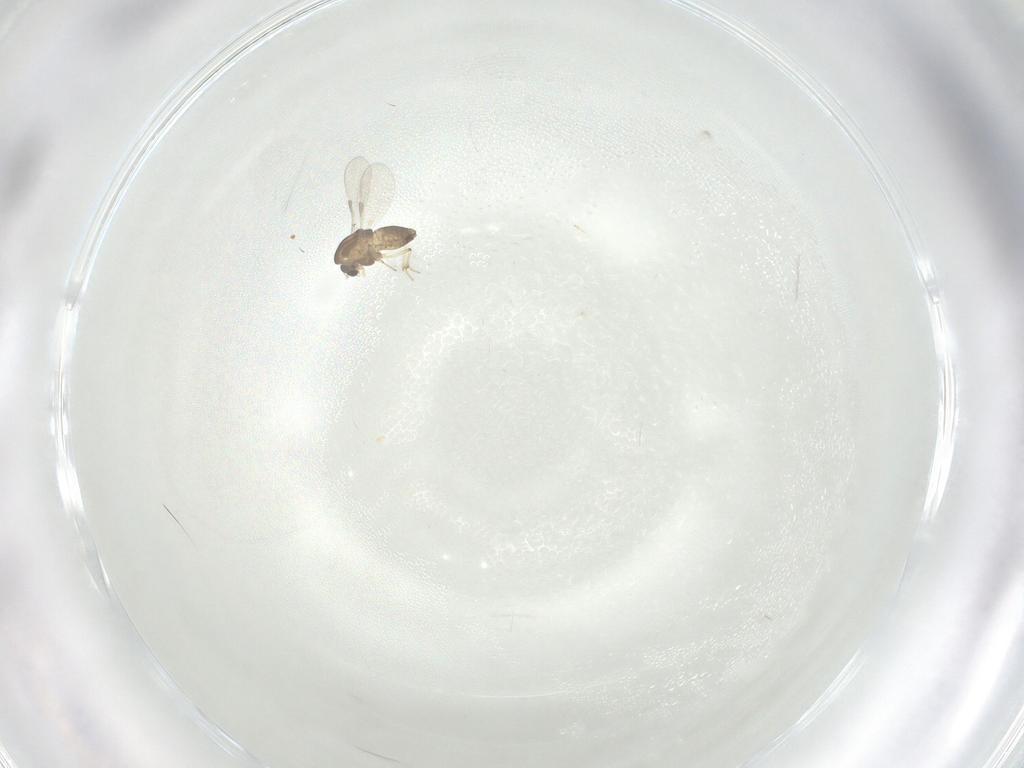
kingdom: Animalia
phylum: Arthropoda
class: Insecta
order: Diptera
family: Chironomidae
